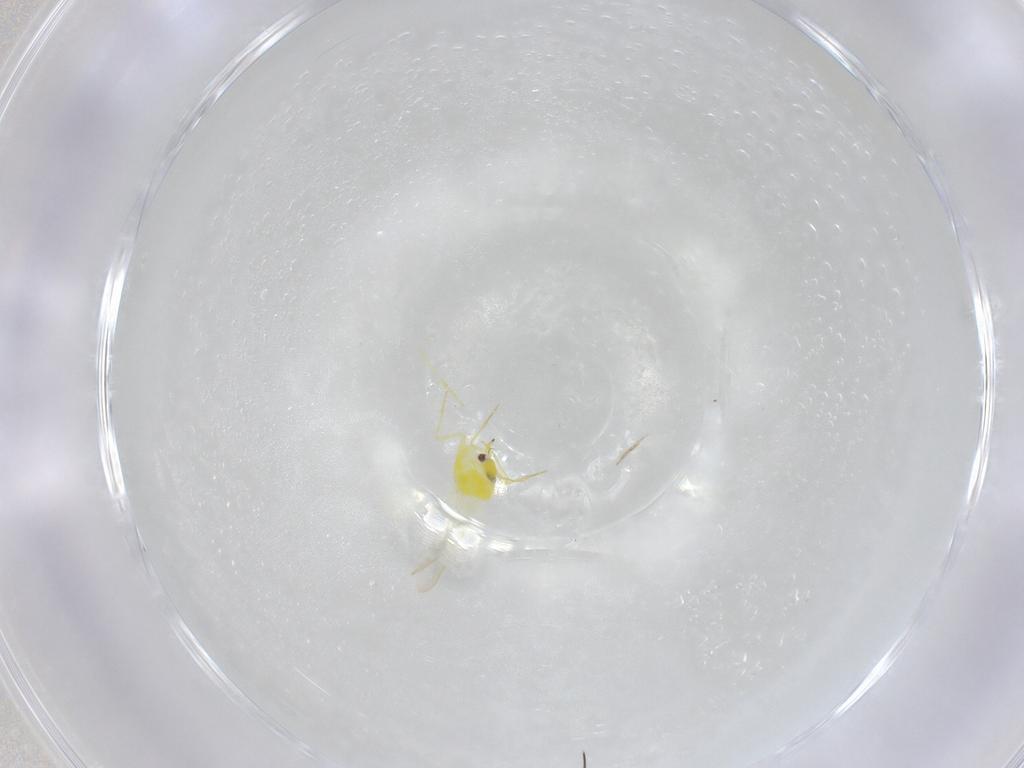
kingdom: Animalia
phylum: Arthropoda
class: Insecta
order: Hemiptera
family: Aleyrodidae
